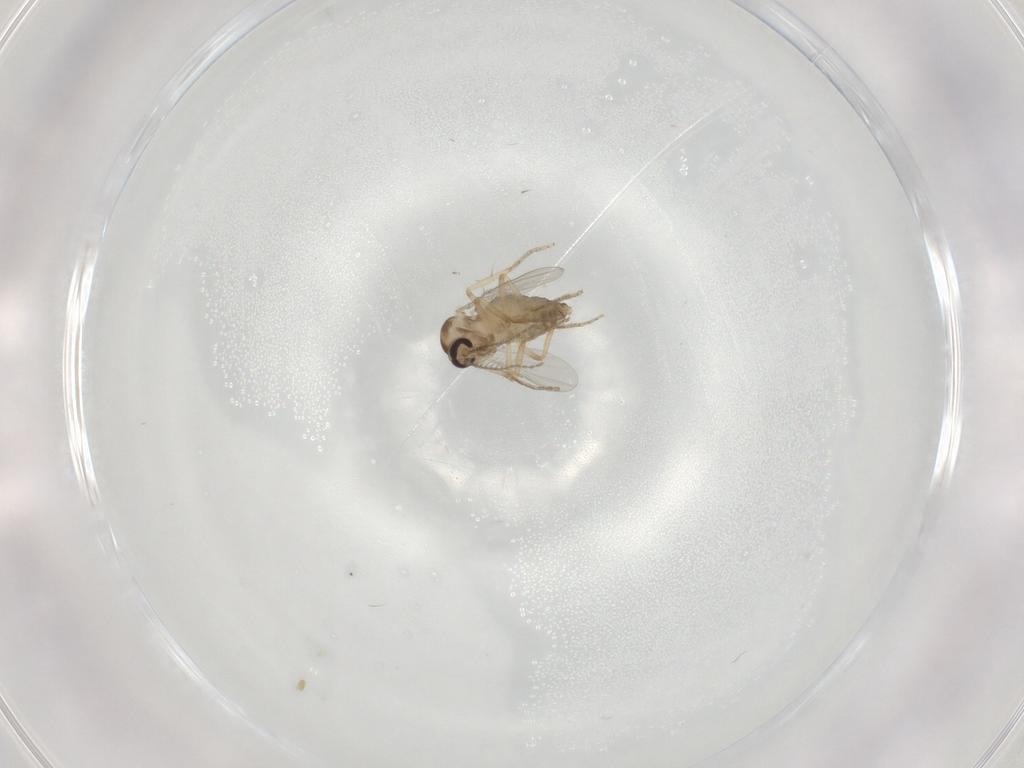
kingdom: Animalia
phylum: Arthropoda
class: Insecta
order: Diptera
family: Ceratopogonidae
